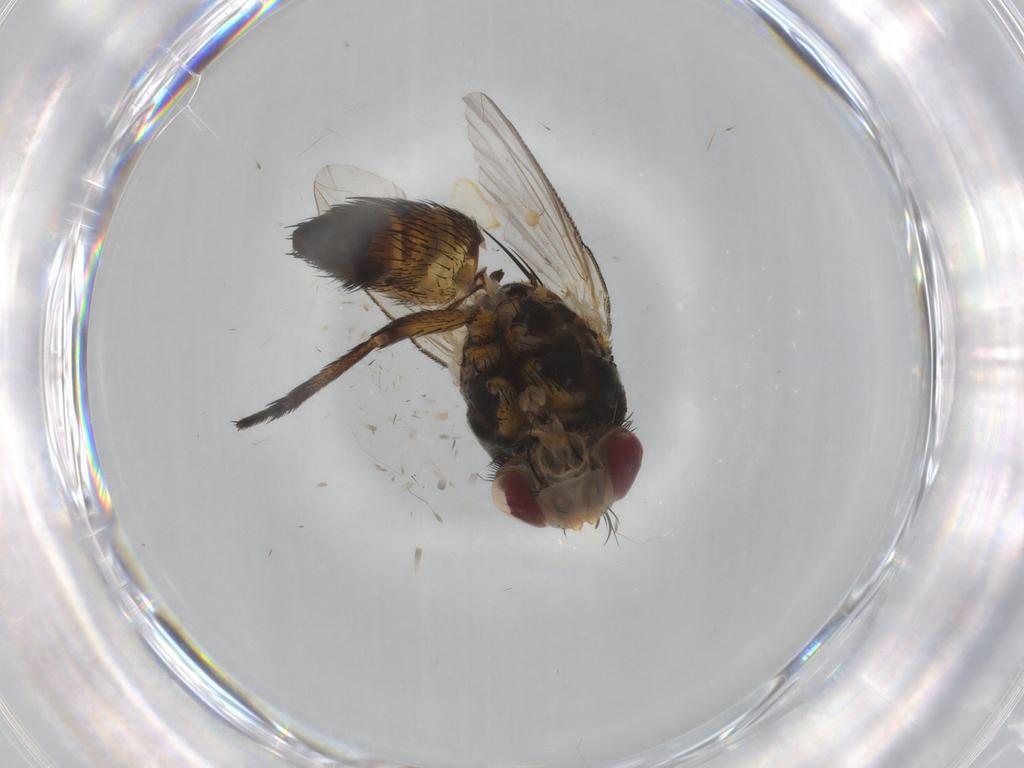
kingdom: Animalia
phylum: Arthropoda
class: Insecta
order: Diptera
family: Tachinidae
